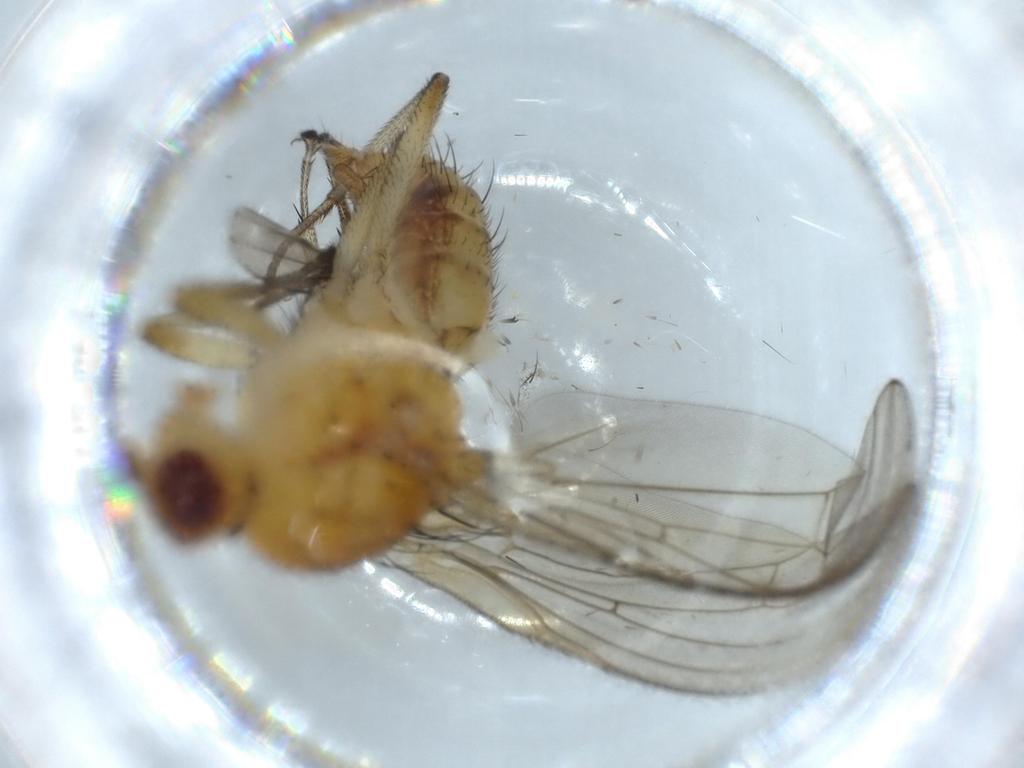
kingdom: Animalia
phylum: Arthropoda
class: Insecta
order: Diptera
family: Heleomyzidae
